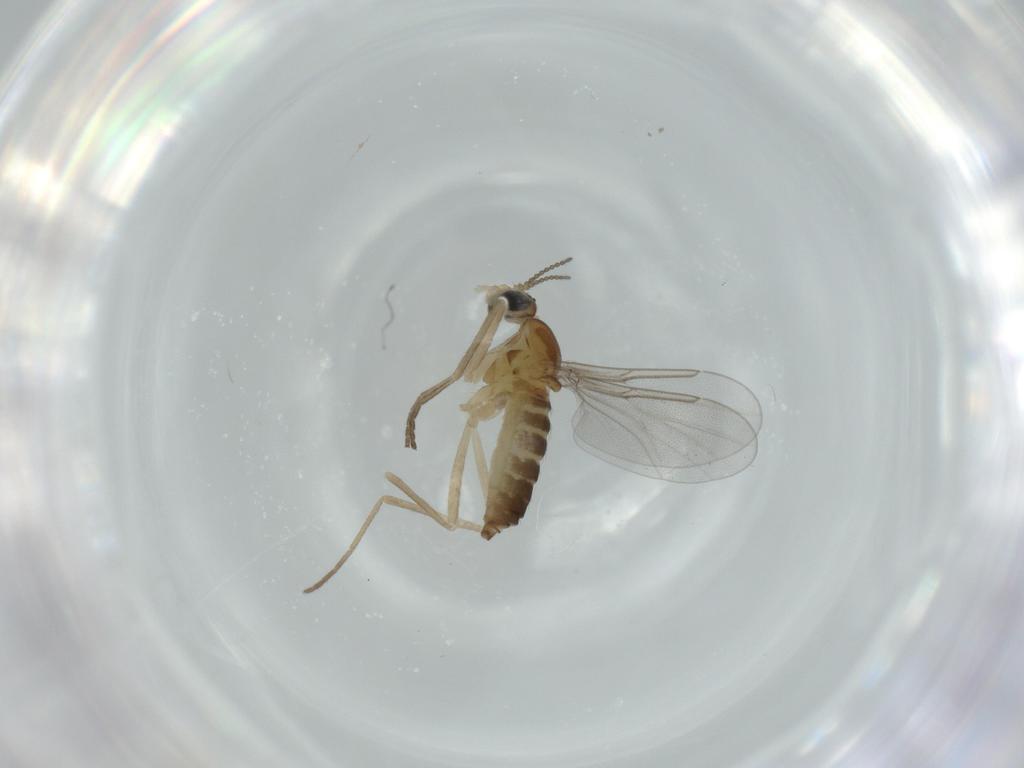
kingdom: Animalia
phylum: Arthropoda
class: Insecta
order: Diptera
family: Cecidomyiidae
